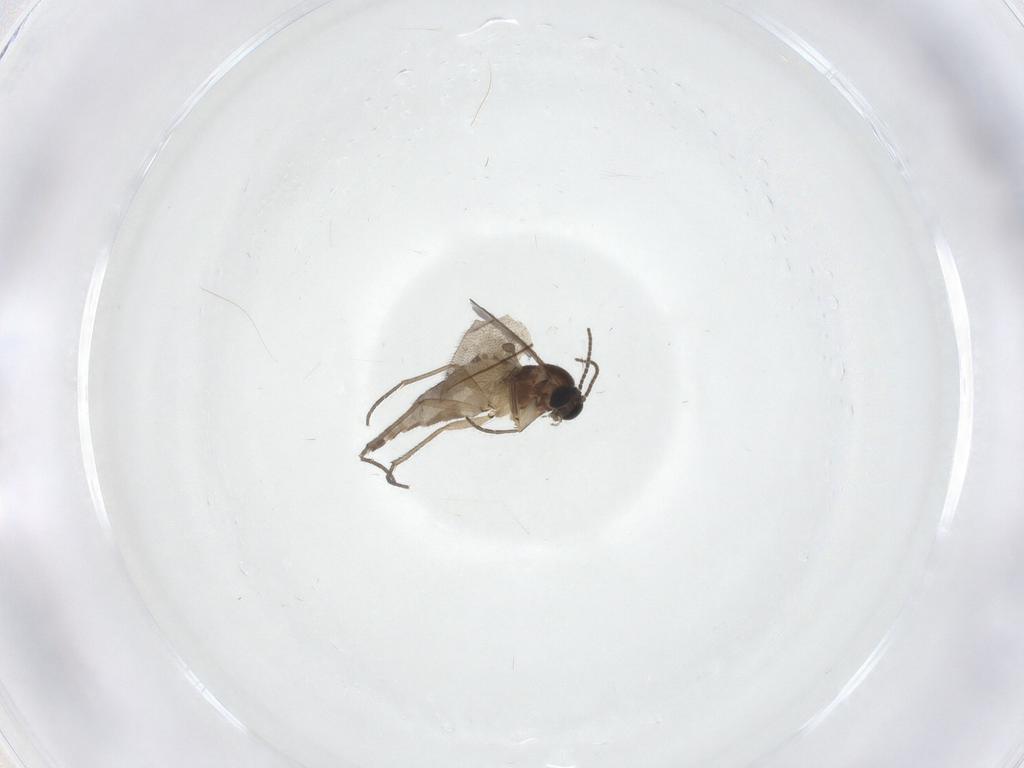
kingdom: Animalia
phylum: Arthropoda
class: Insecta
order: Diptera
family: Sciaridae
